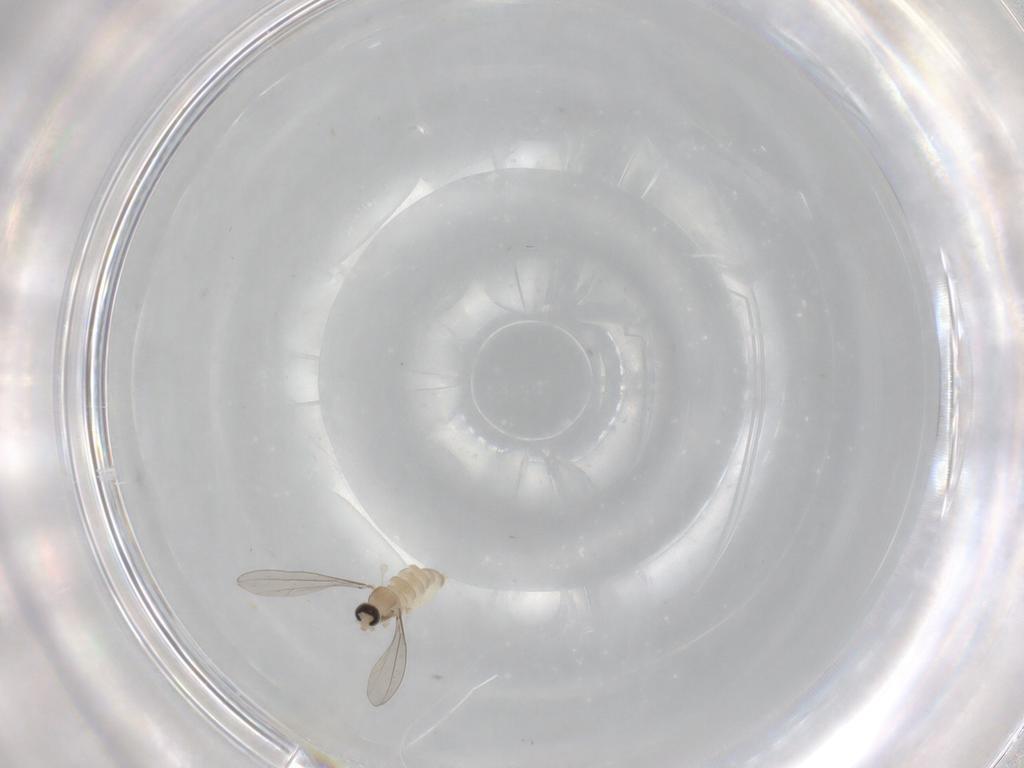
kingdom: Animalia
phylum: Arthropoda
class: Insecta
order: Diptera
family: Cecidomyiidae
